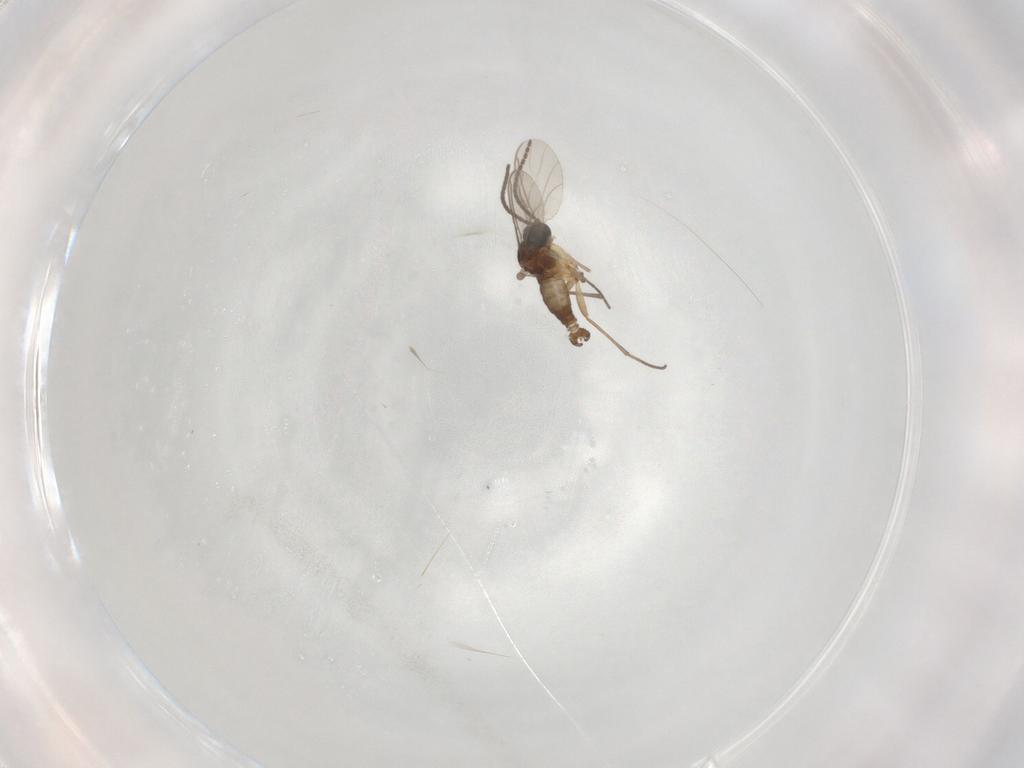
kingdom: Animalia
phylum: Arthropoda
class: Insecta
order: Diptera
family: Sciaridae
